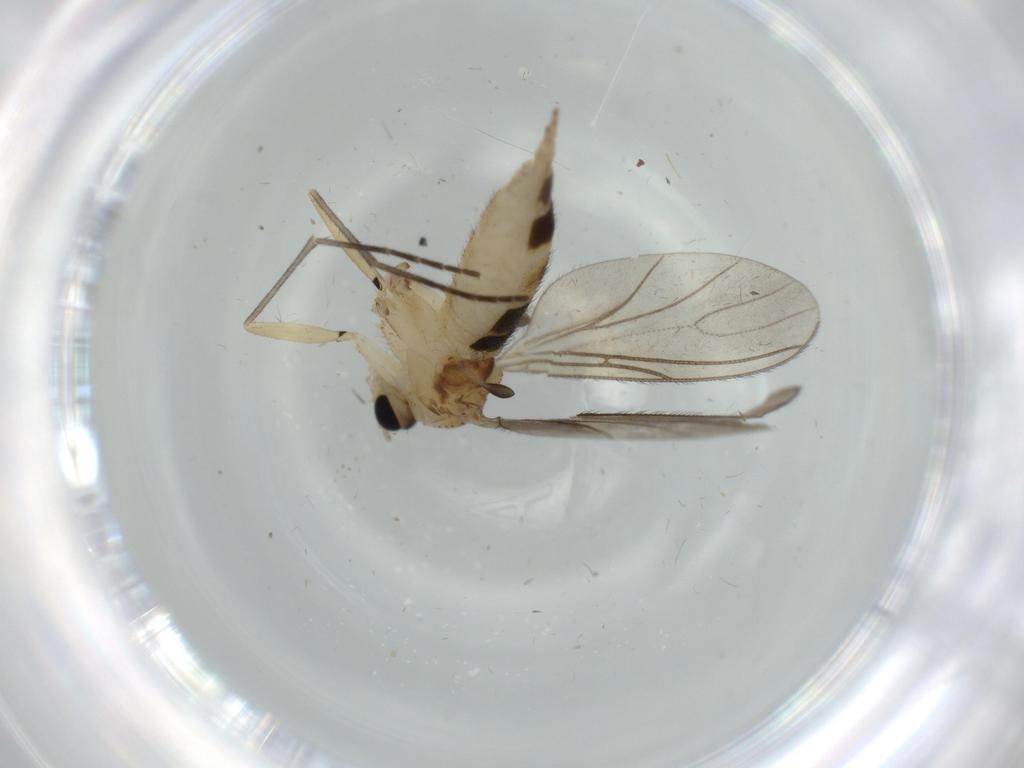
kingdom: Animalia
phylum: Arthropoda
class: Insecta
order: Diptera
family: Sciaridae
